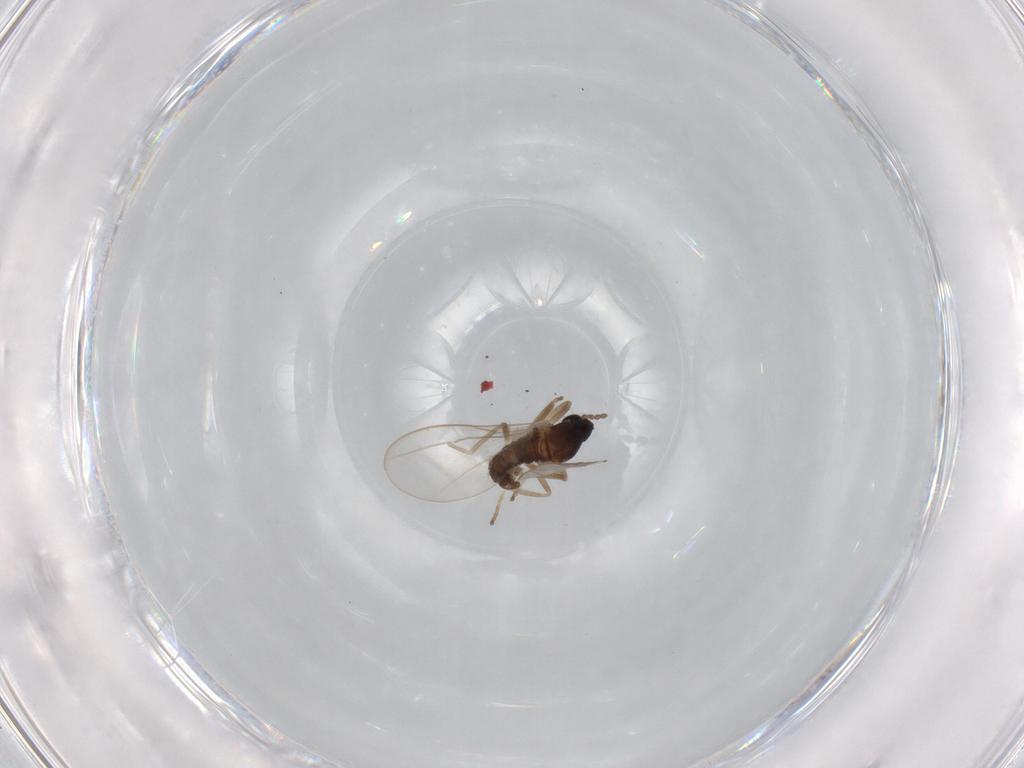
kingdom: Animalia
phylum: Arthropoda
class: Insecta
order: Diptera
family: Cecidomyiidae
